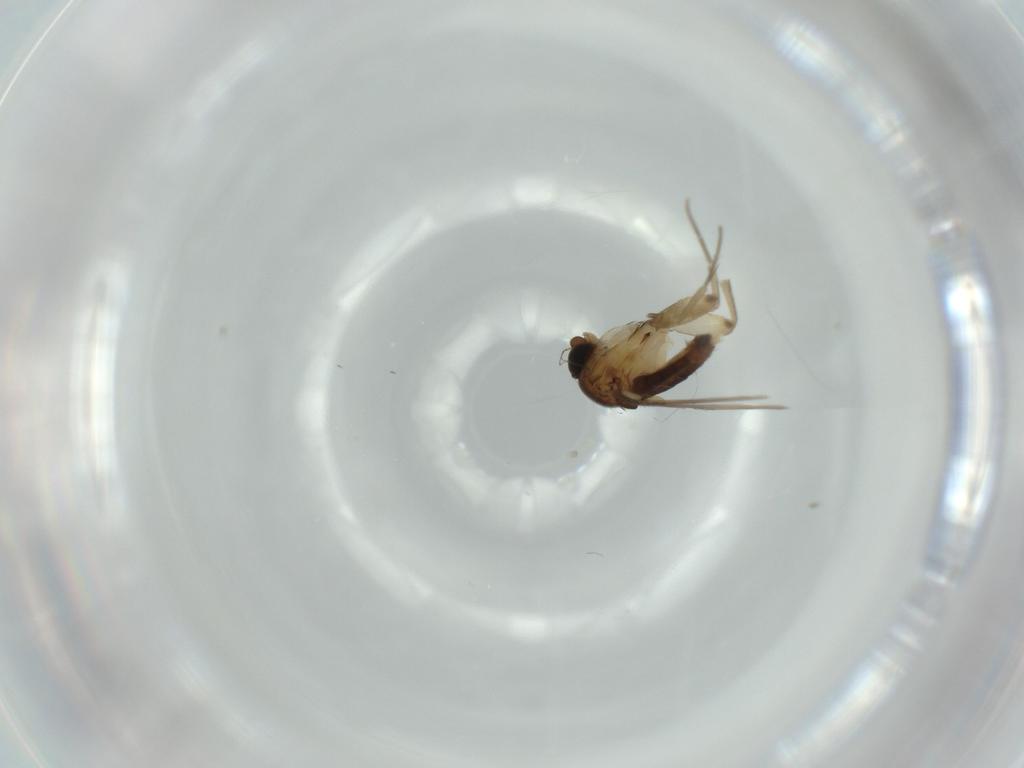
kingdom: Animalia
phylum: Arthropoda
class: Insecta
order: Diptera
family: Phoridae
